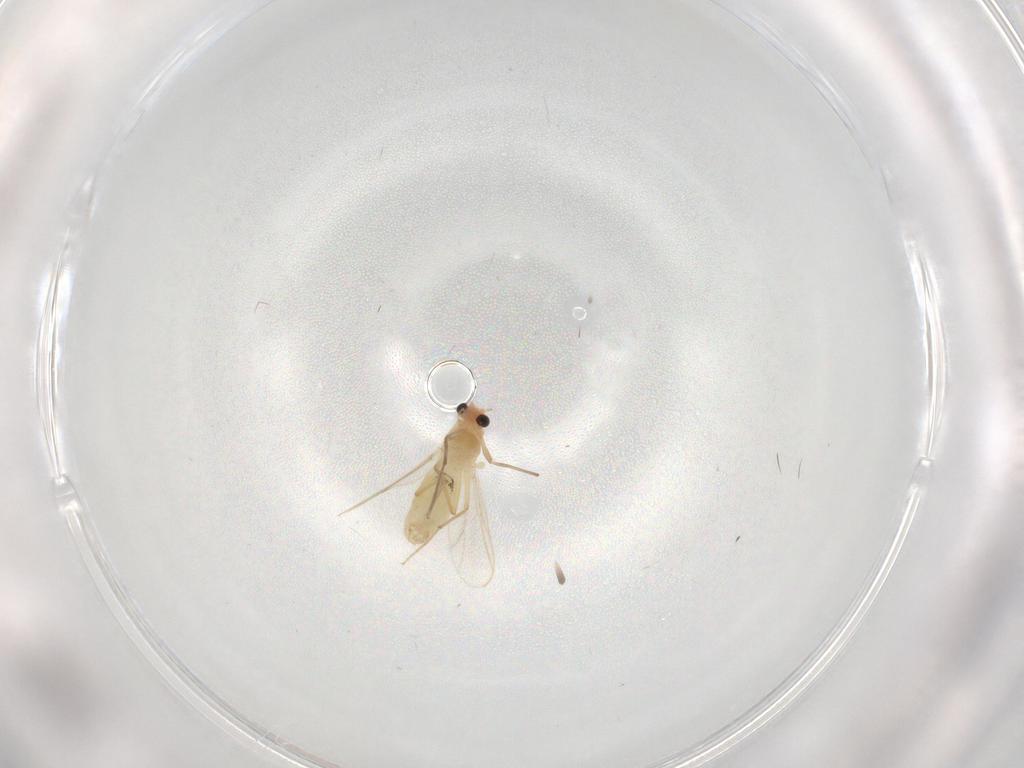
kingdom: Animalia
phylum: Arthropoda
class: Insecta
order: Diptera
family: Chironomidae
